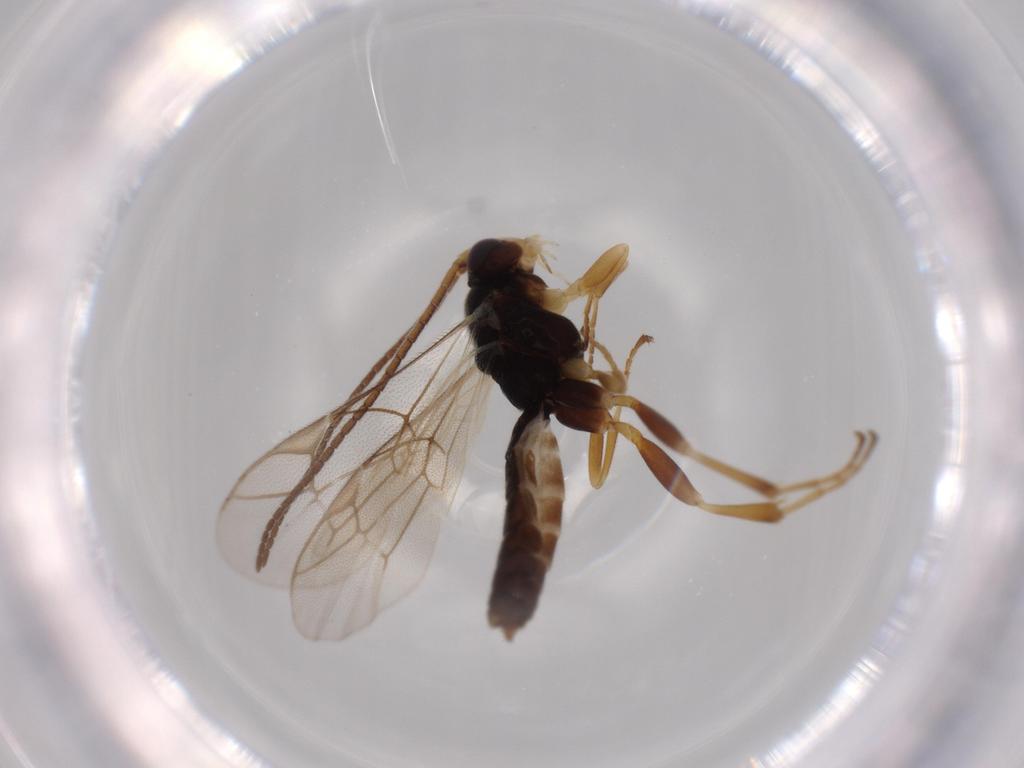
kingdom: Animalia
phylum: Arthropoda
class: Insecta
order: Hymenoptera
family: Ichneumonidae
